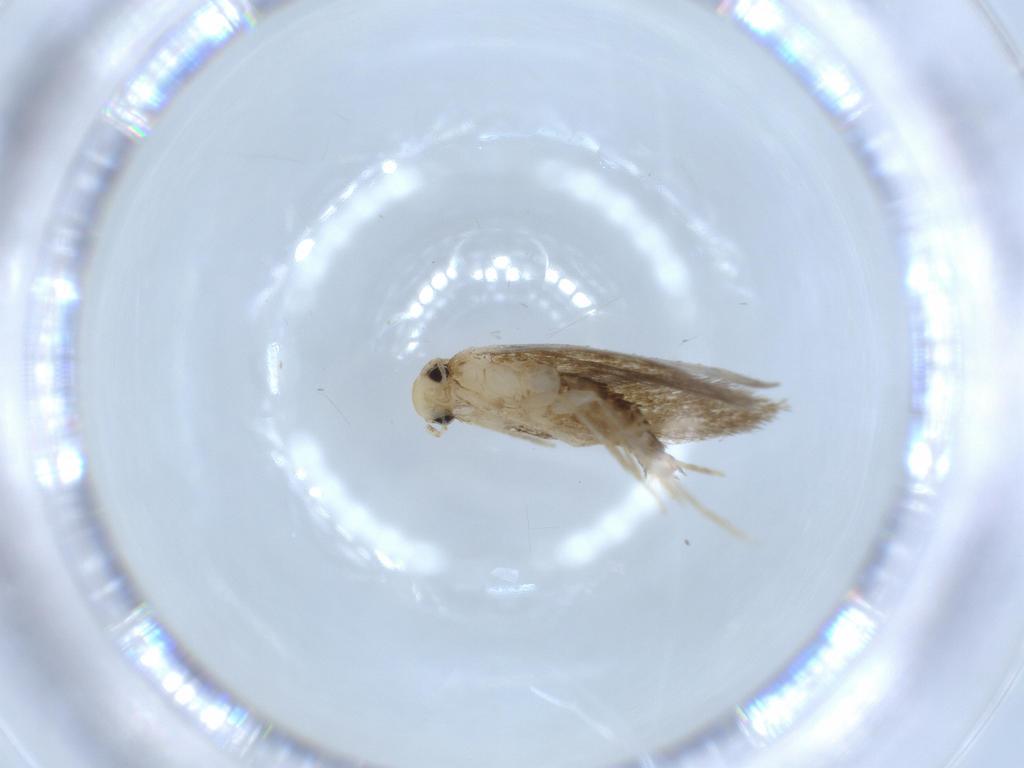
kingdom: Animalia
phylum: Arthropoda
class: Insecta
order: Lepidoptera
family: Tineidae
